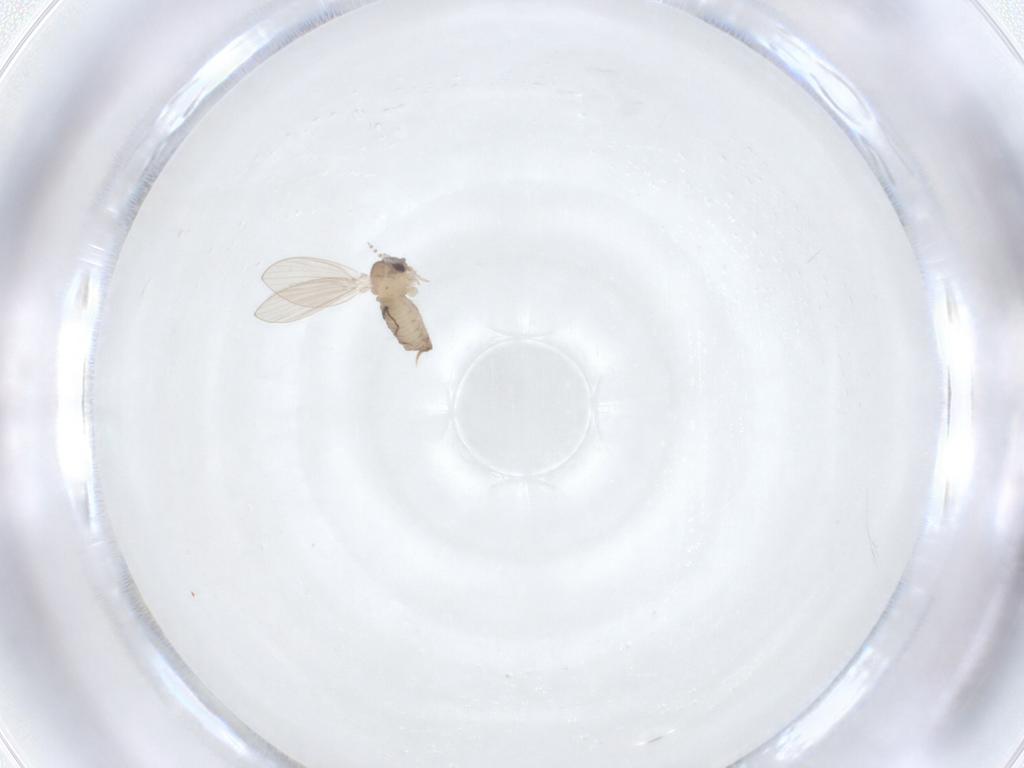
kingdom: Animalia
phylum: Arthropoda
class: Insecta
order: Diptera
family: Psychodidae
